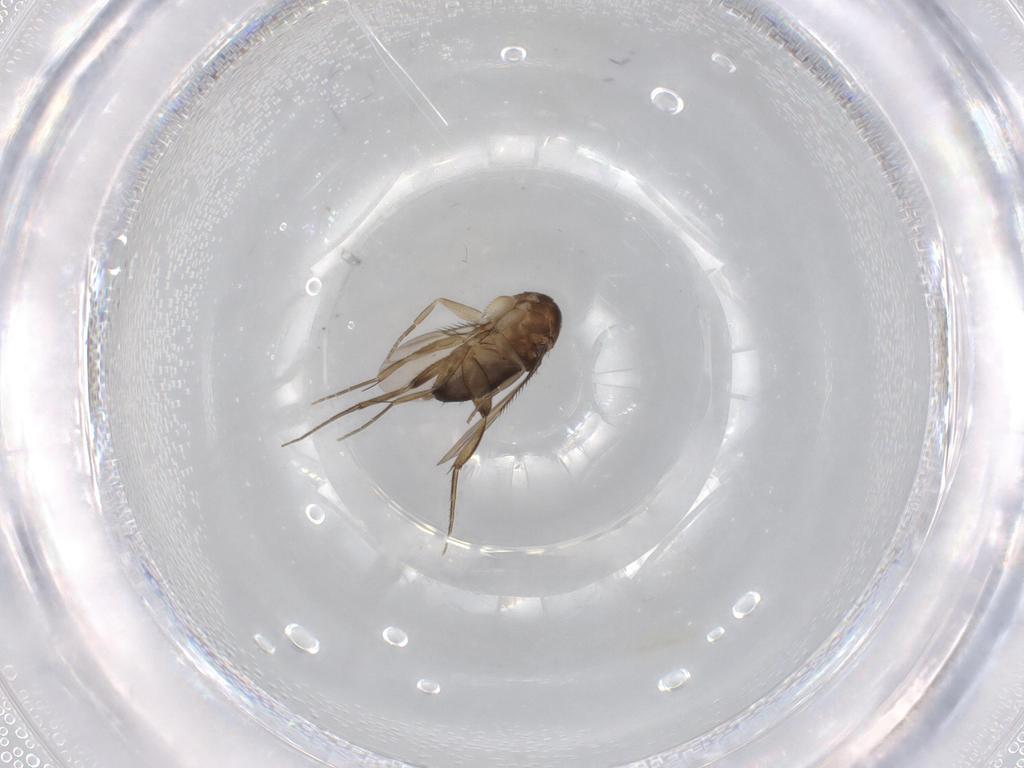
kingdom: Animalia
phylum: Arthropoda
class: Insecta
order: Diptera
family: Phoridae
